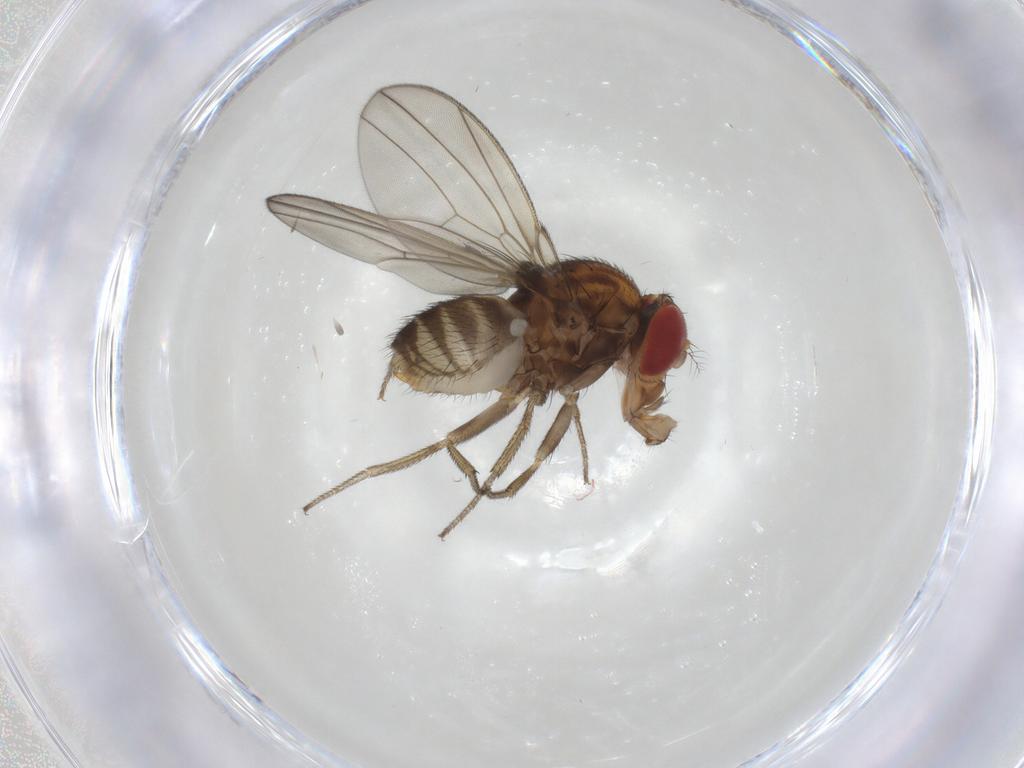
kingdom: Animalia
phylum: Arthropoda
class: Insecta
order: Diptera
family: Drosophilidae
